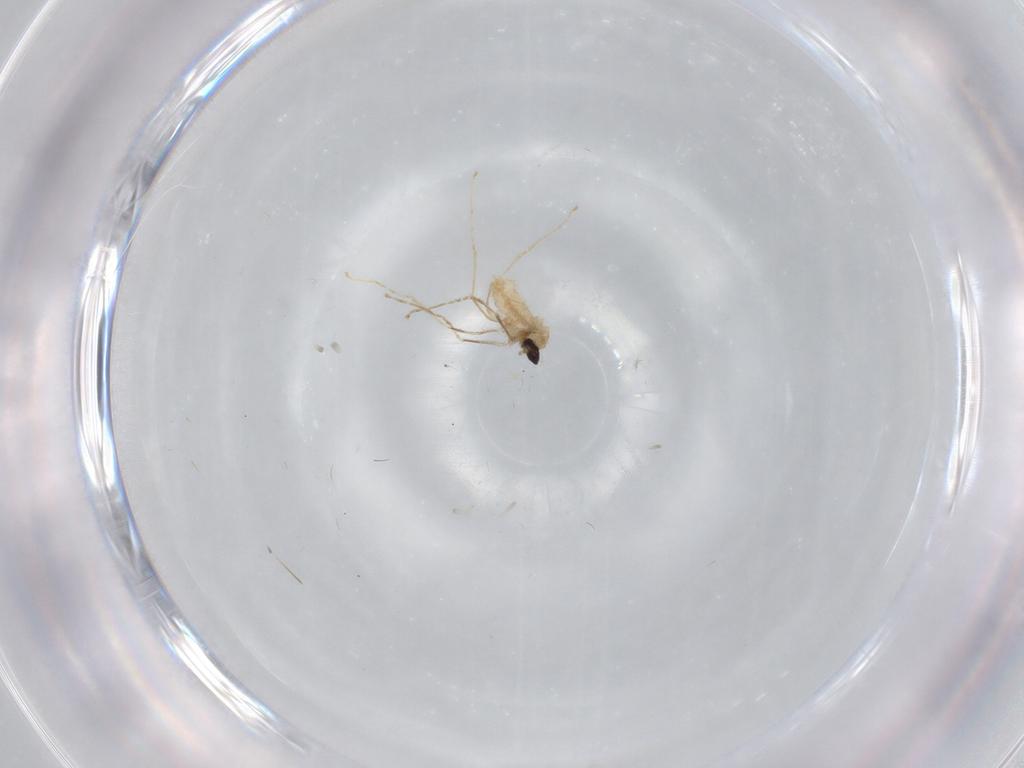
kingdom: Animalia
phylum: Arthropoda
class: Insecta
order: Diptera
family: Cecidomyiidae
